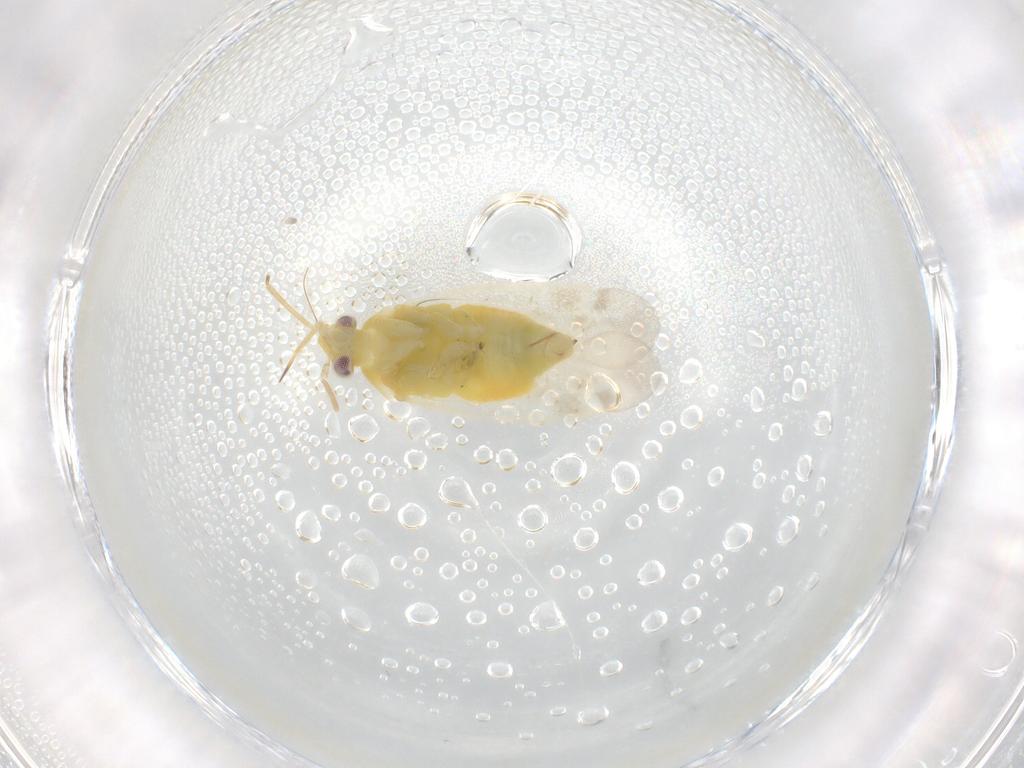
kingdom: Animalia
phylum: Arthropoda
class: Insecta
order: Hemiptera
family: Miridae
